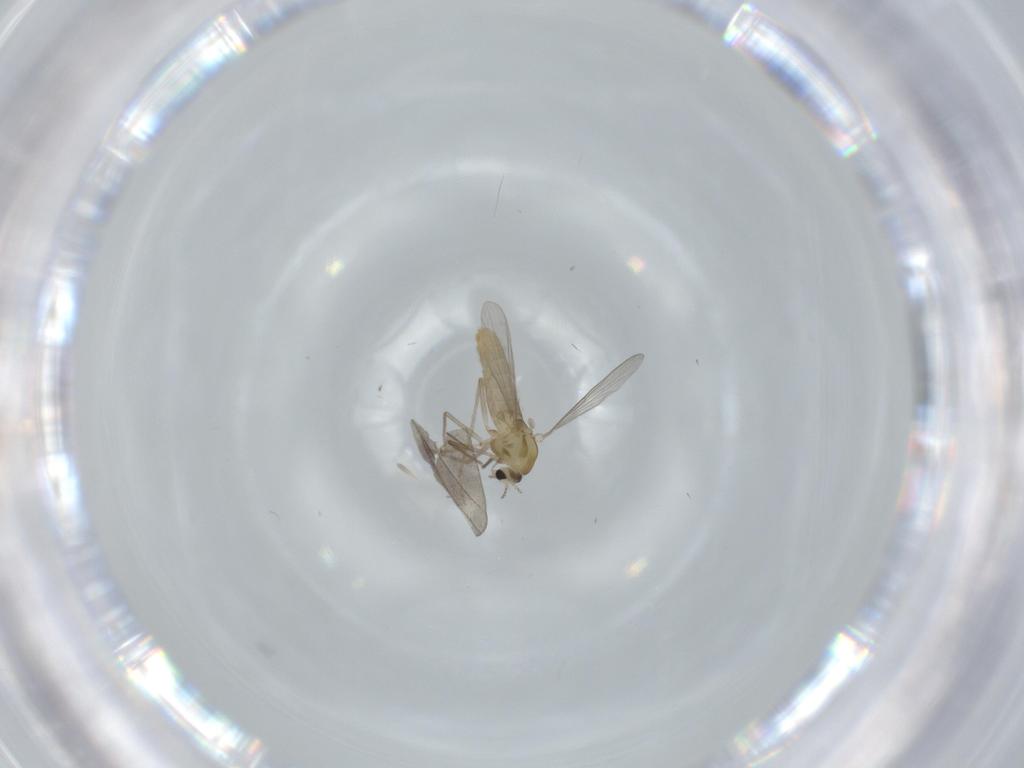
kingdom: Animalia
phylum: Arthropoda
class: Insecta
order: Diptera
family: Chironomidae
